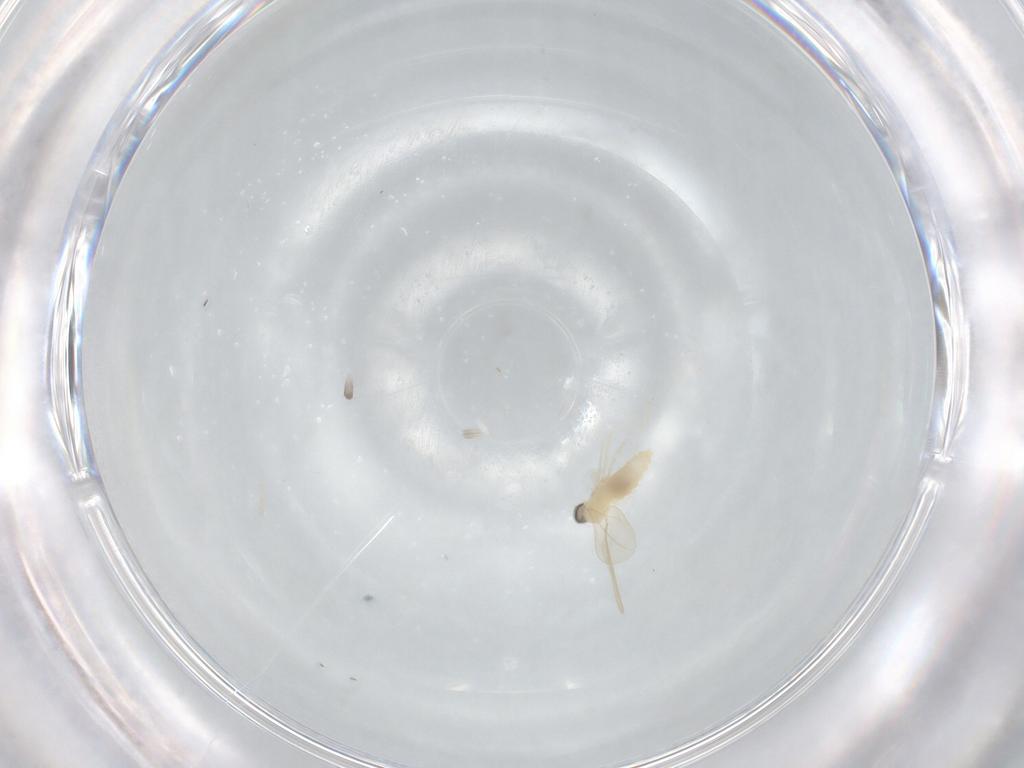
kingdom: Animalia
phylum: Arthropoda
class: Insecta
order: Diptera
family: Cecidomyiidae
